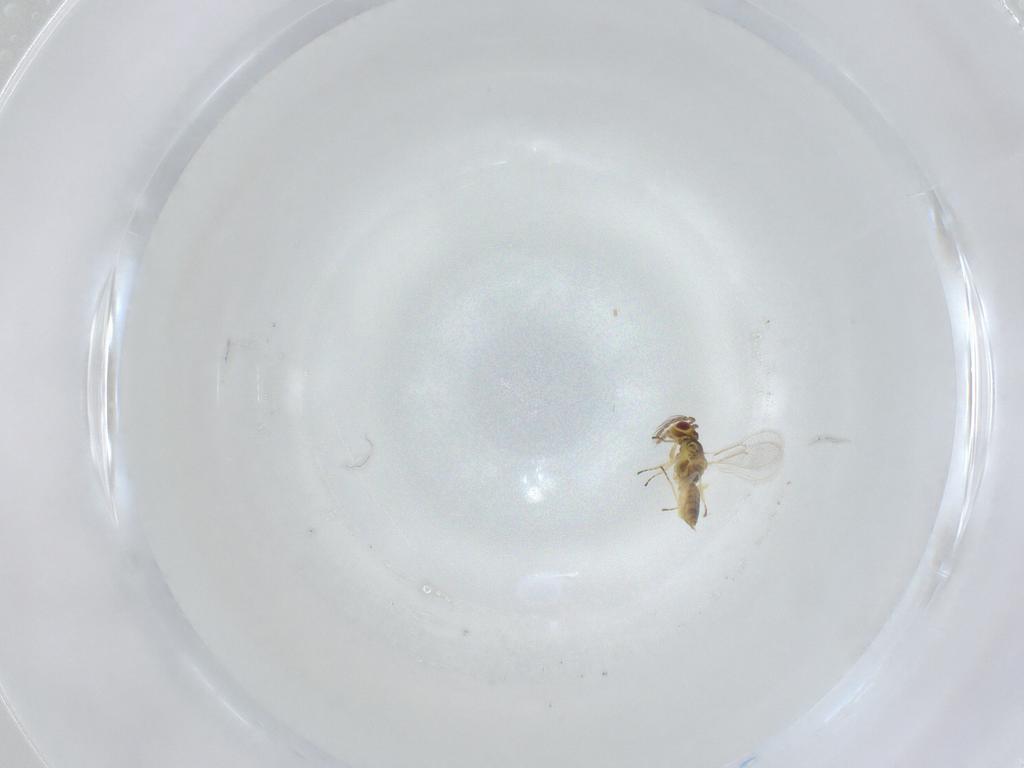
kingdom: Animalia
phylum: Arthropoda
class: Insecta
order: Hymenoptera
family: Eulophidae
